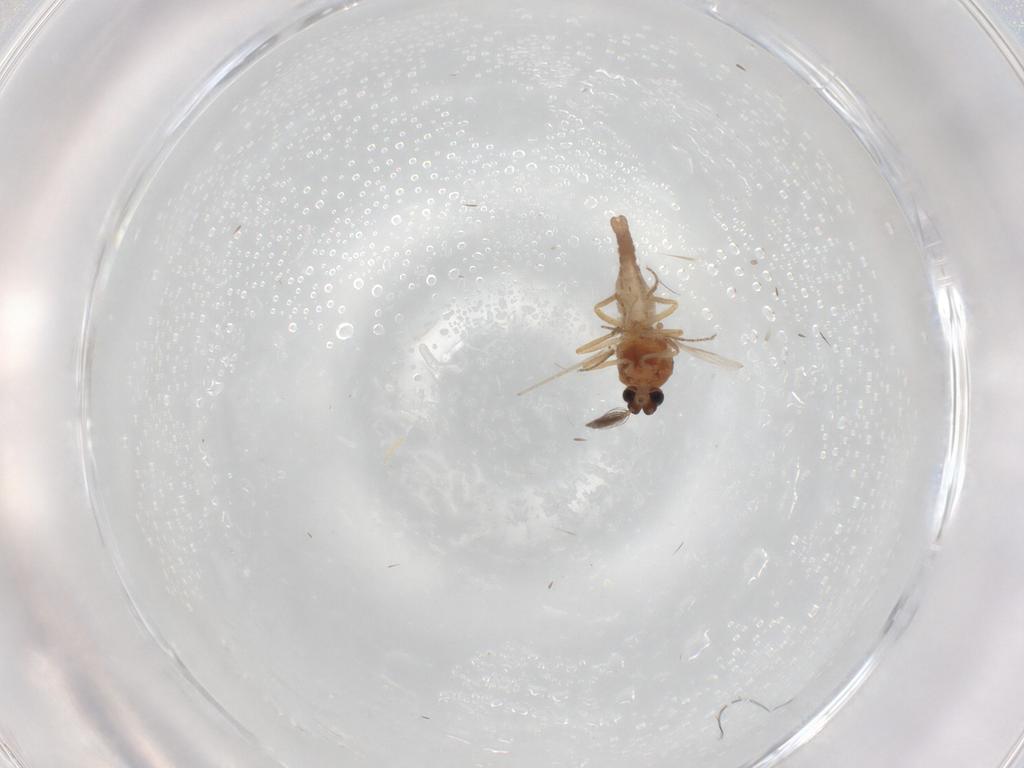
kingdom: Animalia
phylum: Arthropoda
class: Insecta
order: Diptera
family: Ceratopogonidae
